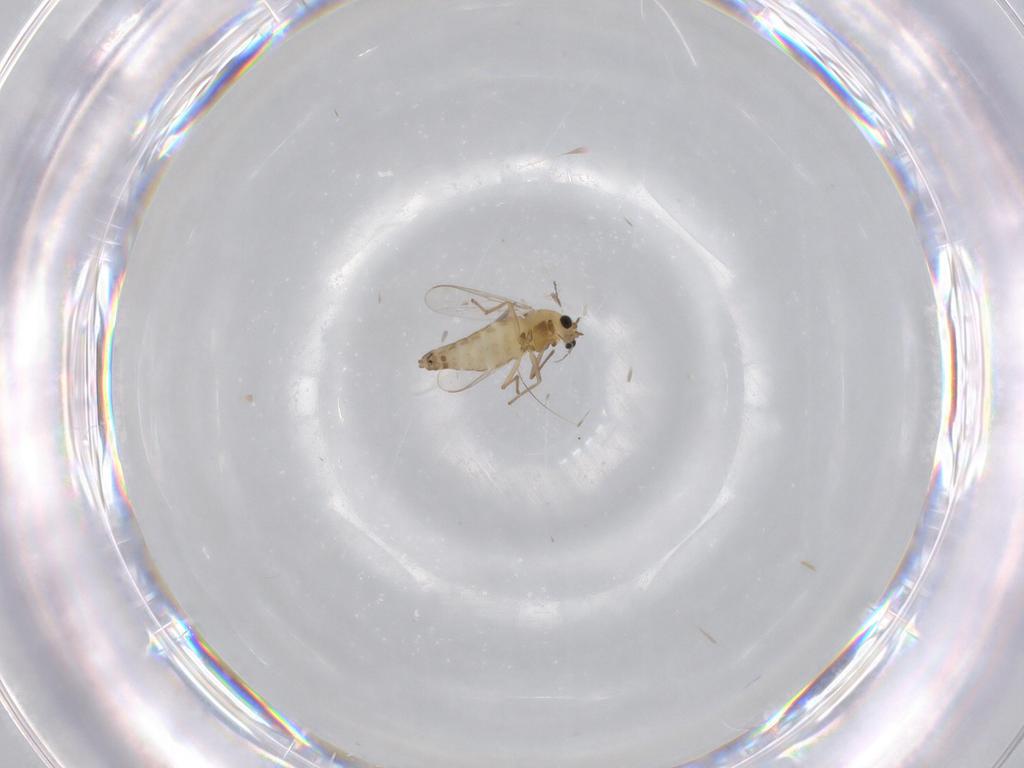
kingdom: Animalia
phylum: Arthropoda
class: Insecta
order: Diptera
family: Chironomidae
